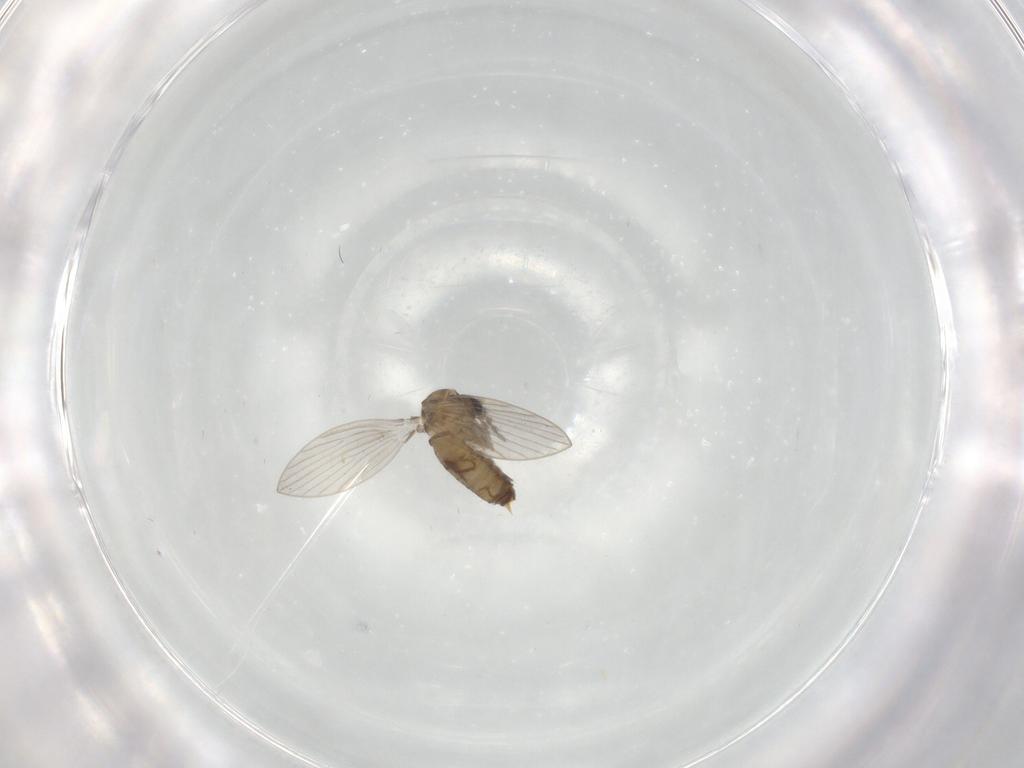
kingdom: Animalia
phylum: Arthropoda
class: Insecta
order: Diptera
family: Psychodidae
